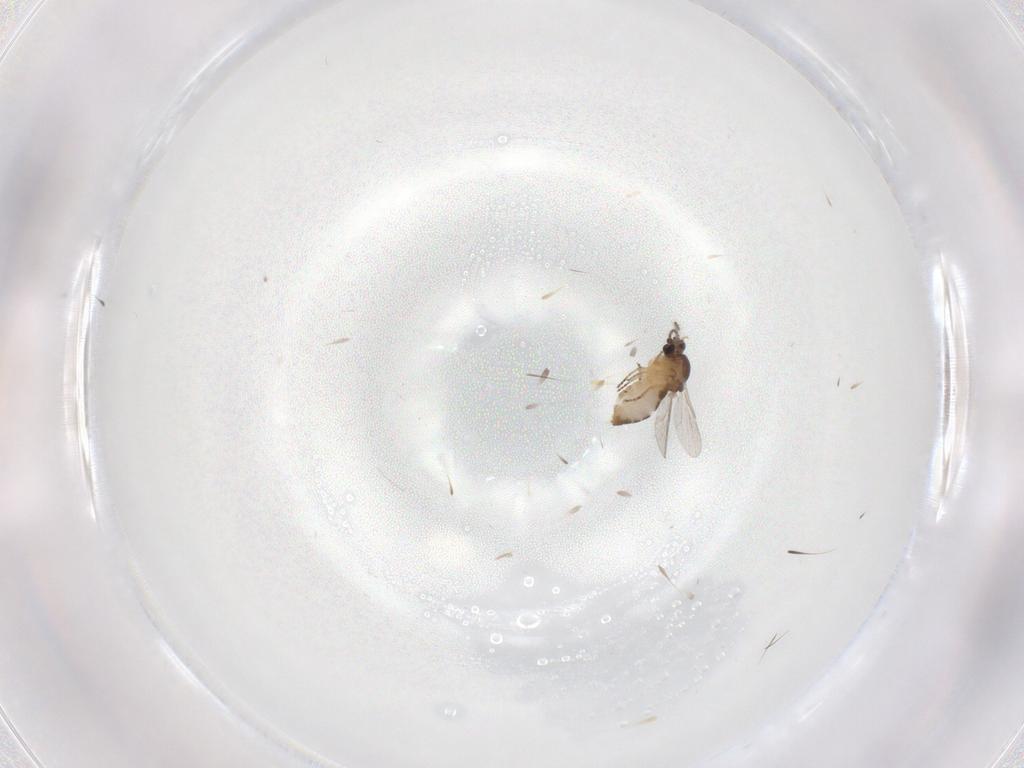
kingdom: Animalia
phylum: Arthropoda
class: Insecta
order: Diptera
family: Ceratopogonidae
